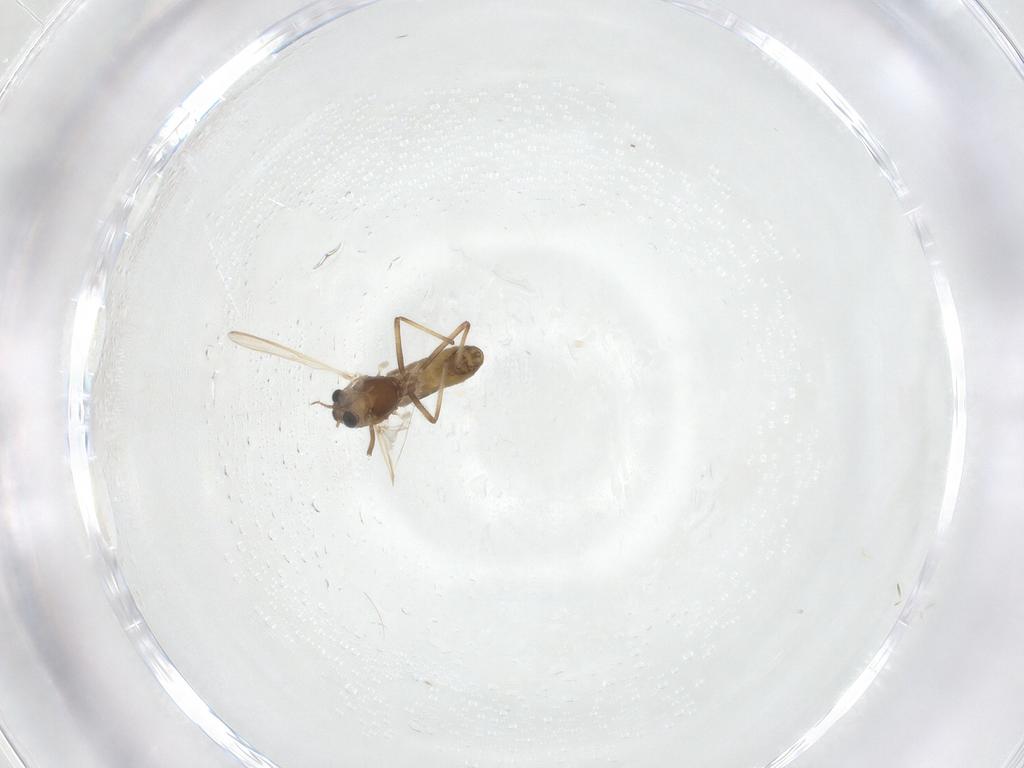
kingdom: Animalia
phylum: Arthropoda
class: Insecta
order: Diptera
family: Chironomidae
